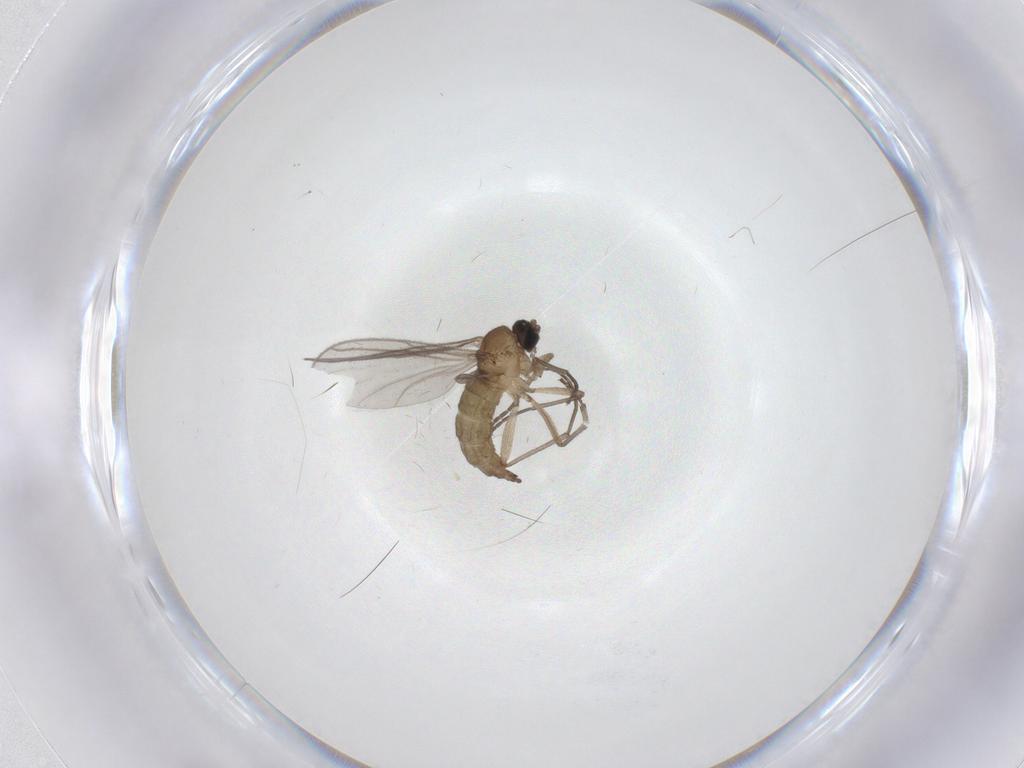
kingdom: Animalia
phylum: Arthropoda
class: Insecta
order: Diptera
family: Sciaridae
